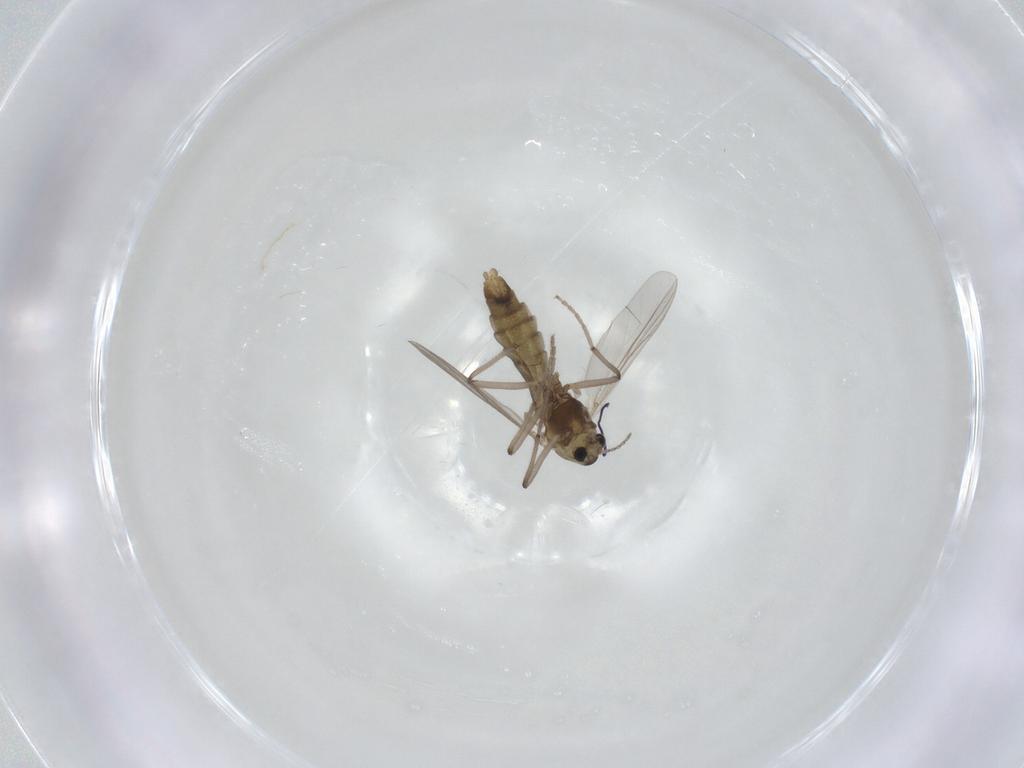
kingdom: Animalia
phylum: Arthropoda
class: Insecta
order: Diptera
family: Chironomidae
